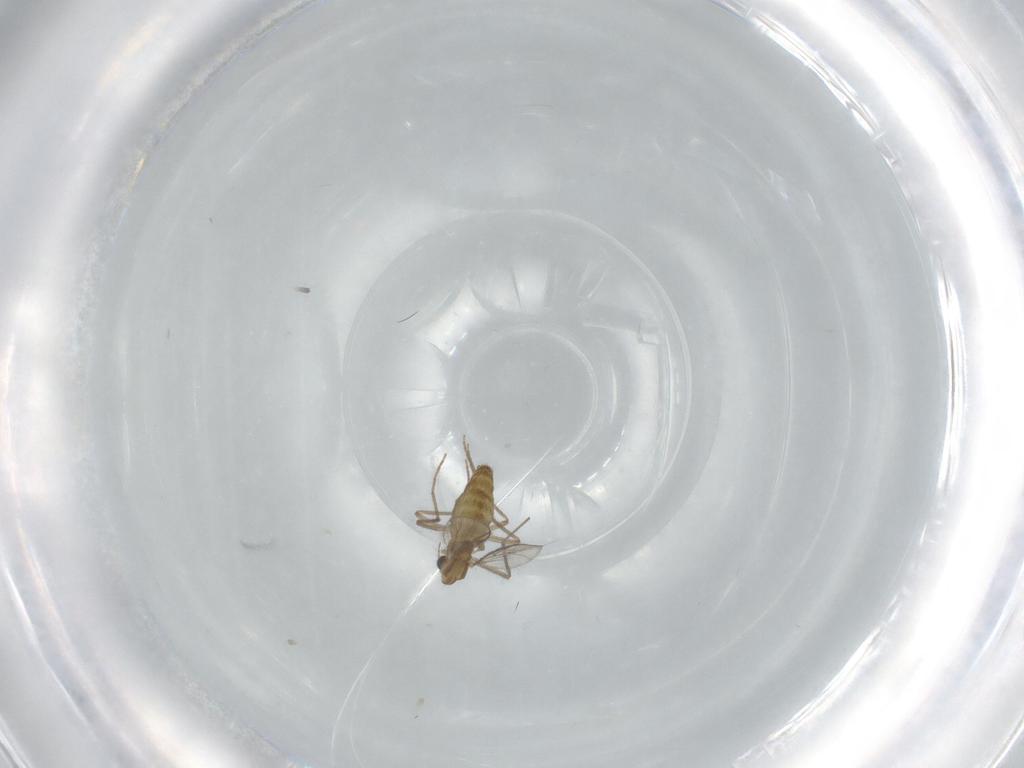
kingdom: Animalia
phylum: Arthropoda
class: Insecta
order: Diptera
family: Chironomidae
